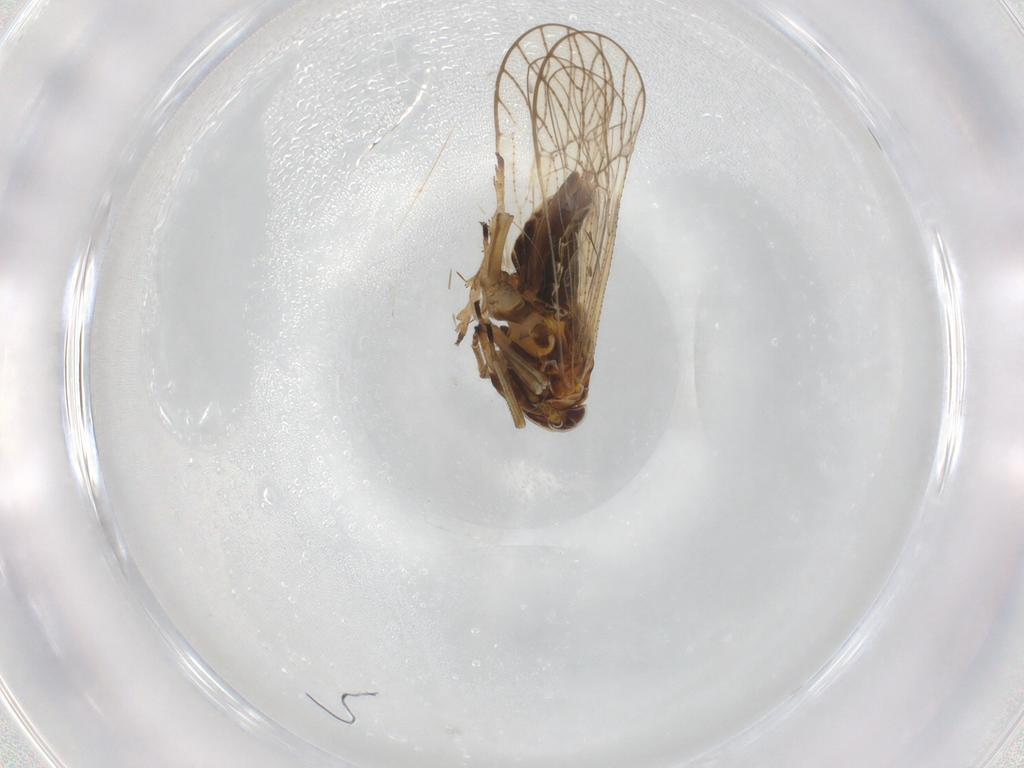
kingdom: Animalia
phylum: Arthropoda
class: Insecta
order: Hemiptera
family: Delphacidae
